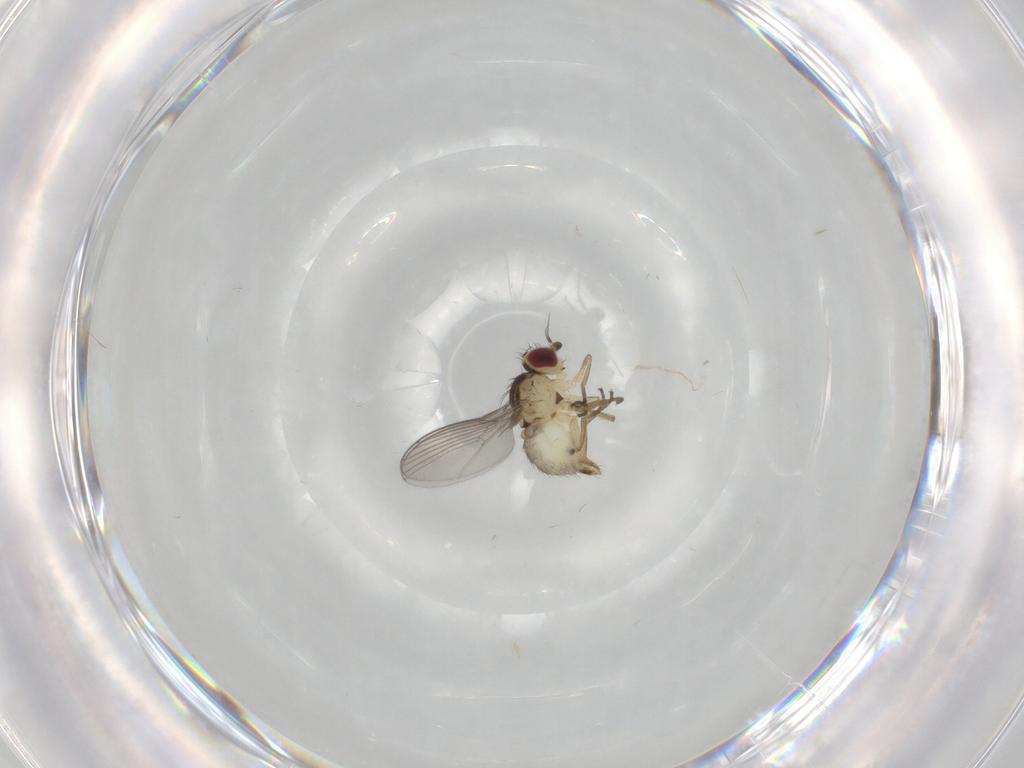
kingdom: Animalia
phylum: Arthropoda
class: Insecta
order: Diptera
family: Agromyzidae
